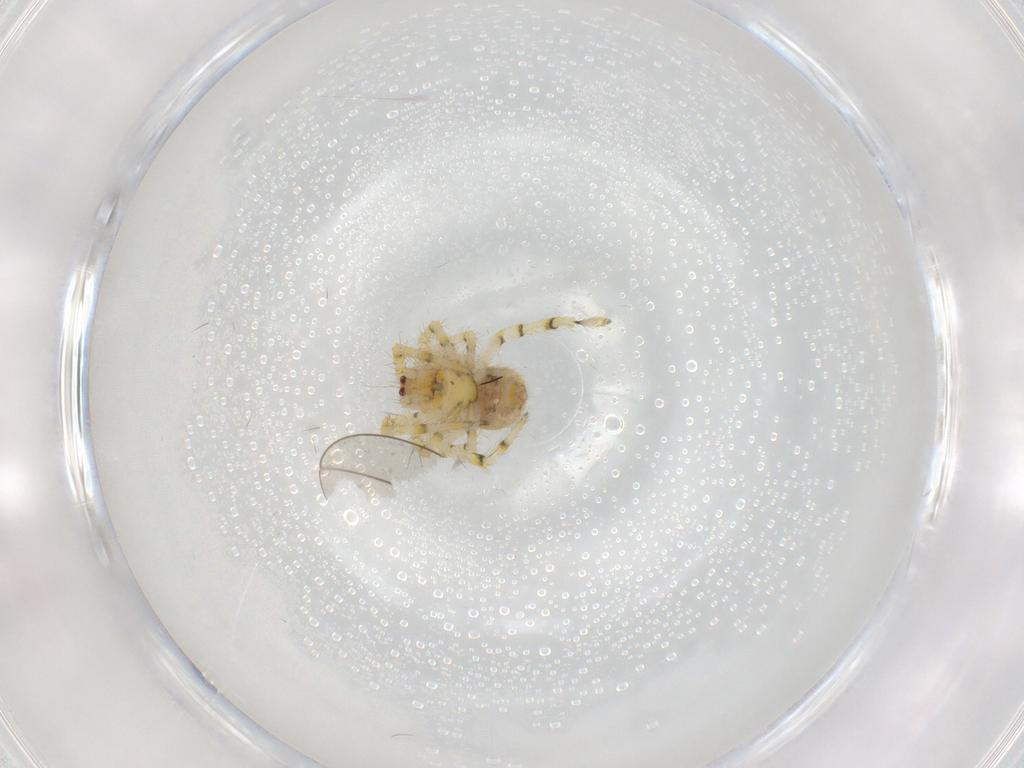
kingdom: Animalia
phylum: Arthropoda
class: Arachnida
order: Araneae
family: Theridiidae
